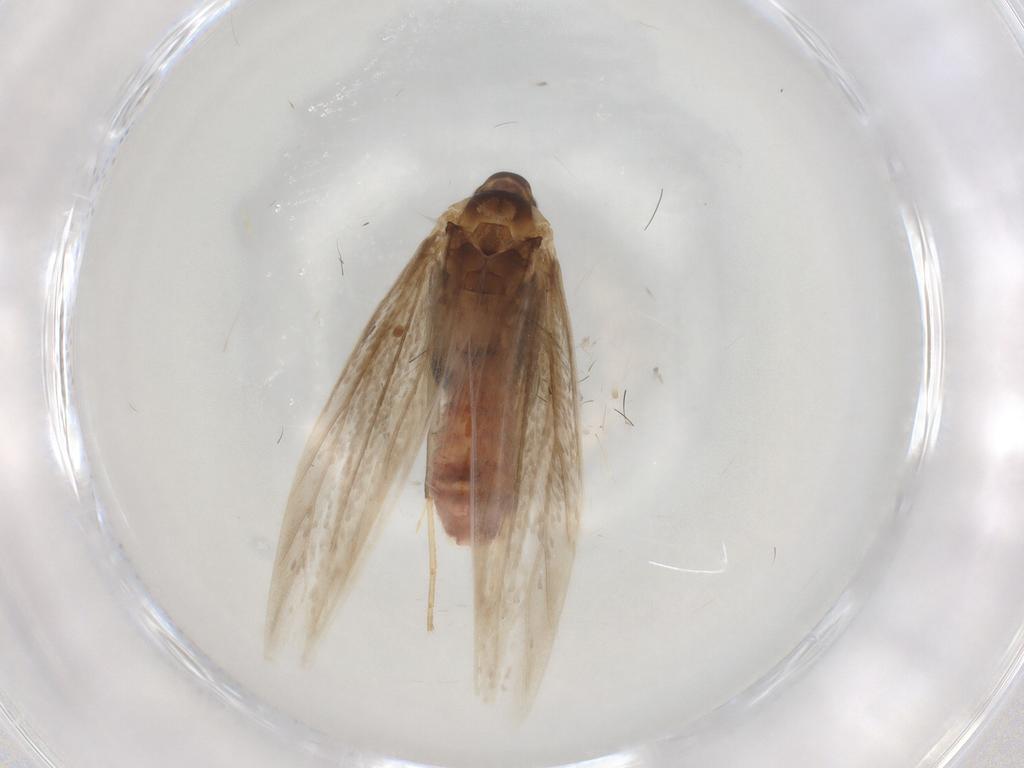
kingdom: Animalia
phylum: Arthropoda
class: Insecta
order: Lepidoptera
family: Coleophoridae
